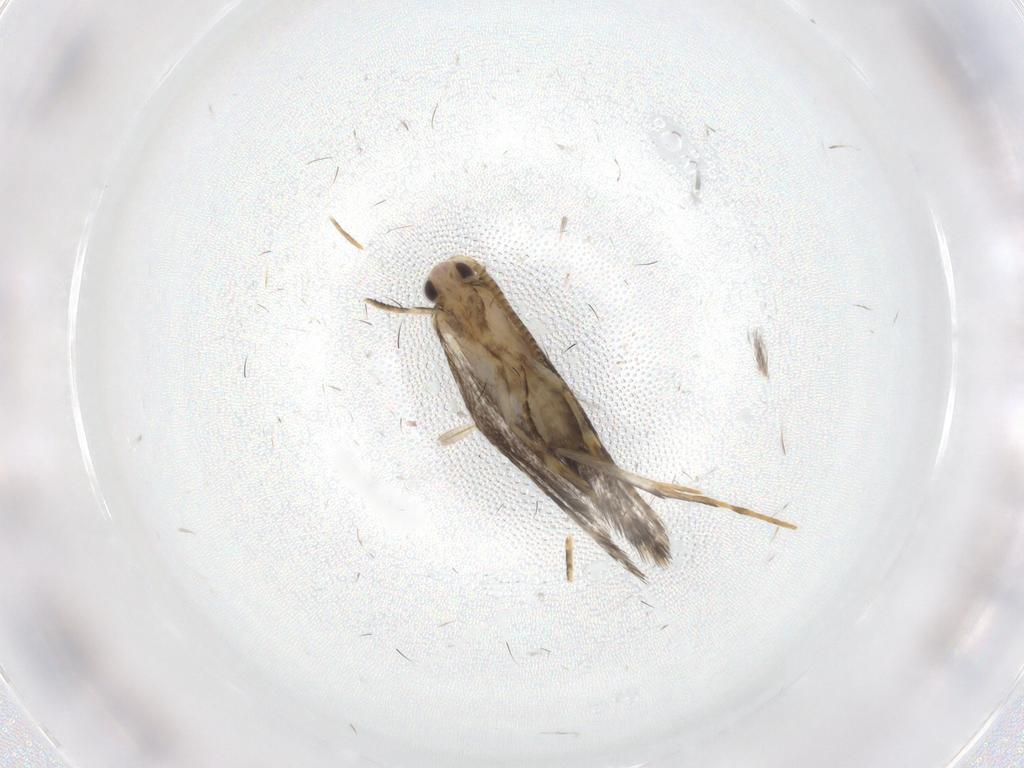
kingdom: Animalia
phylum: Arthropoda
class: Insecta
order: Lepidoptera
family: Tineidae
